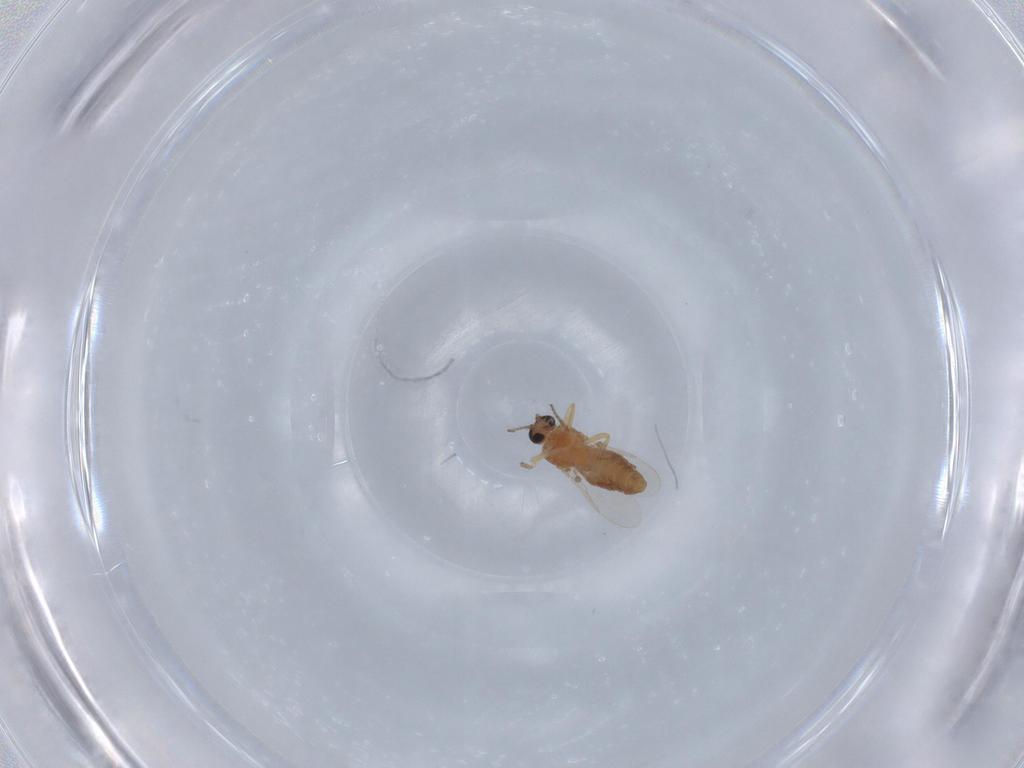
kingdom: Animalia
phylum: Arthropoda
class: Insecta
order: Diptera
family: Ceratopogonidae
